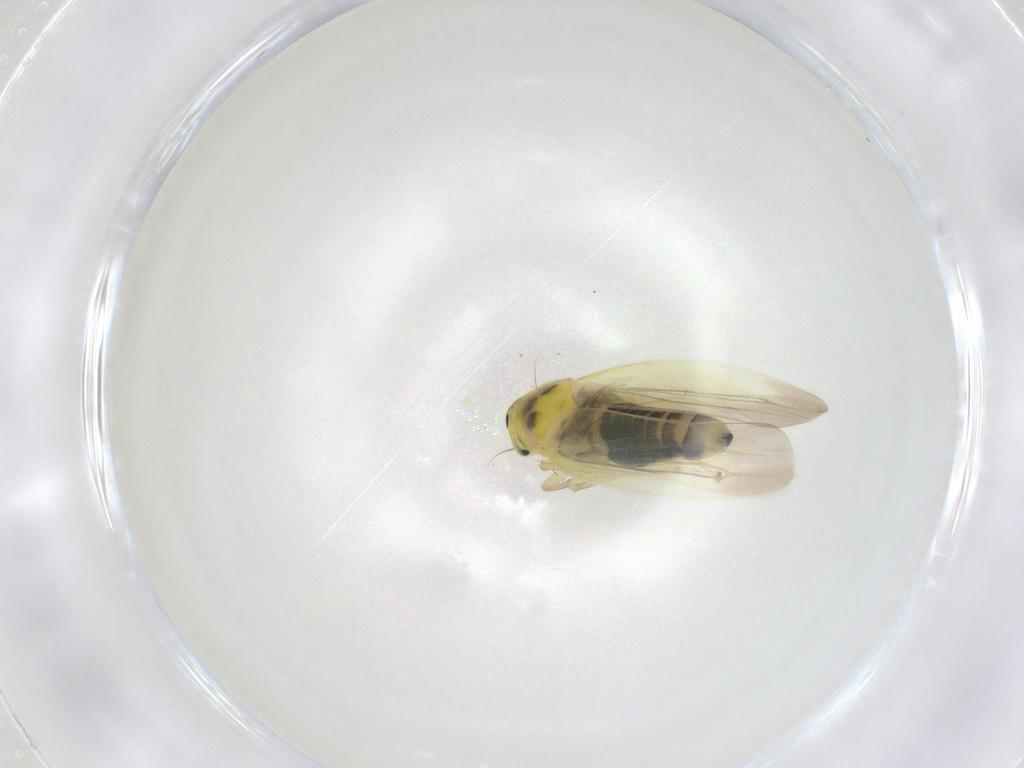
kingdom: Animalia
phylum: Arthropoda
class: Insecta
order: Hemiptera
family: Cicadellidae
